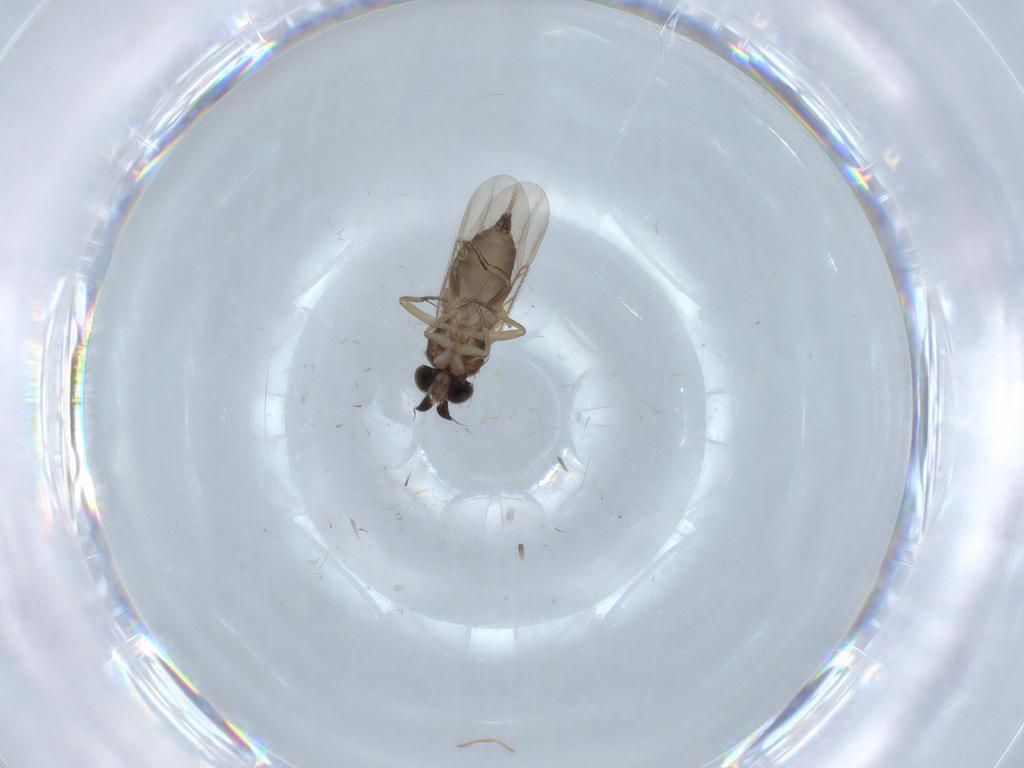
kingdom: Animalia
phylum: Arthropoda
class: Insecta
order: Diptera
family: Phoridae
